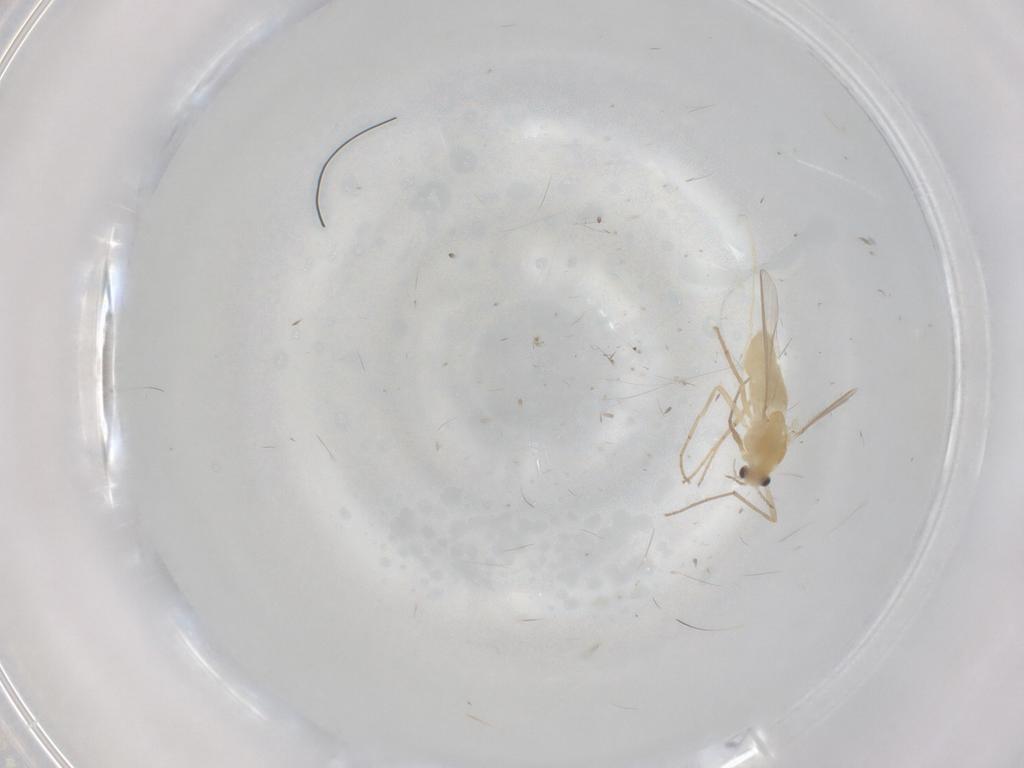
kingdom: Animalia
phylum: Arthropoda
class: Insecta
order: Diptera
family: Chironomidae
